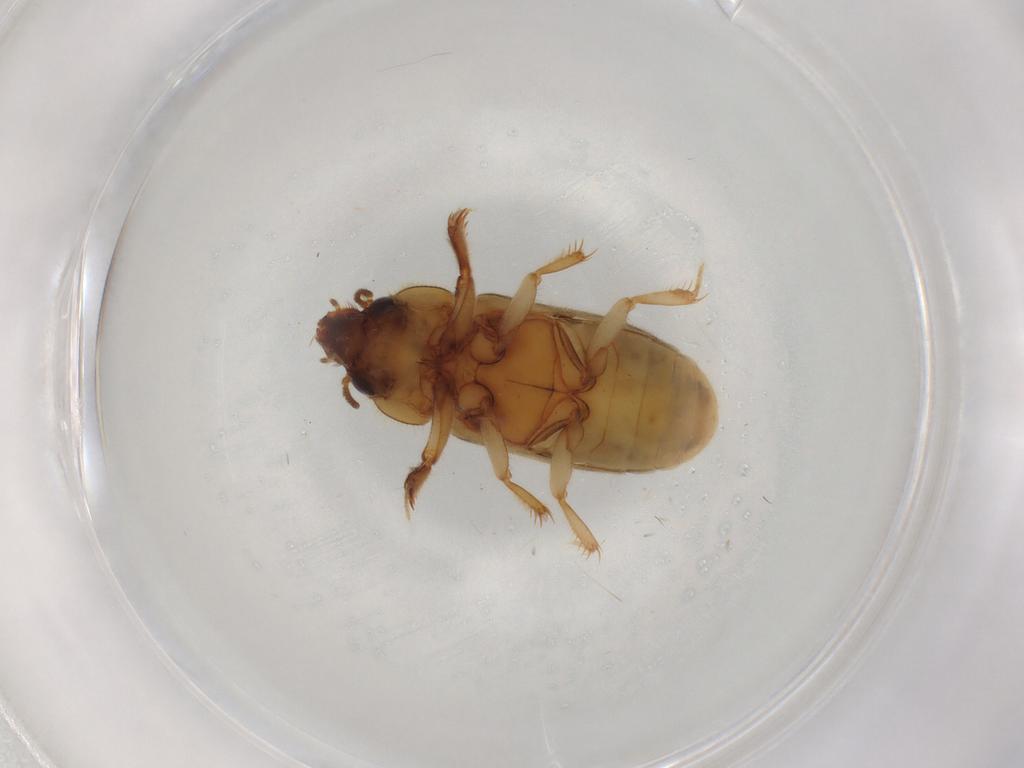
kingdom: Animalia
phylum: Arthropoda
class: Insecta
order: Coleoptera
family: Heteroceridae
